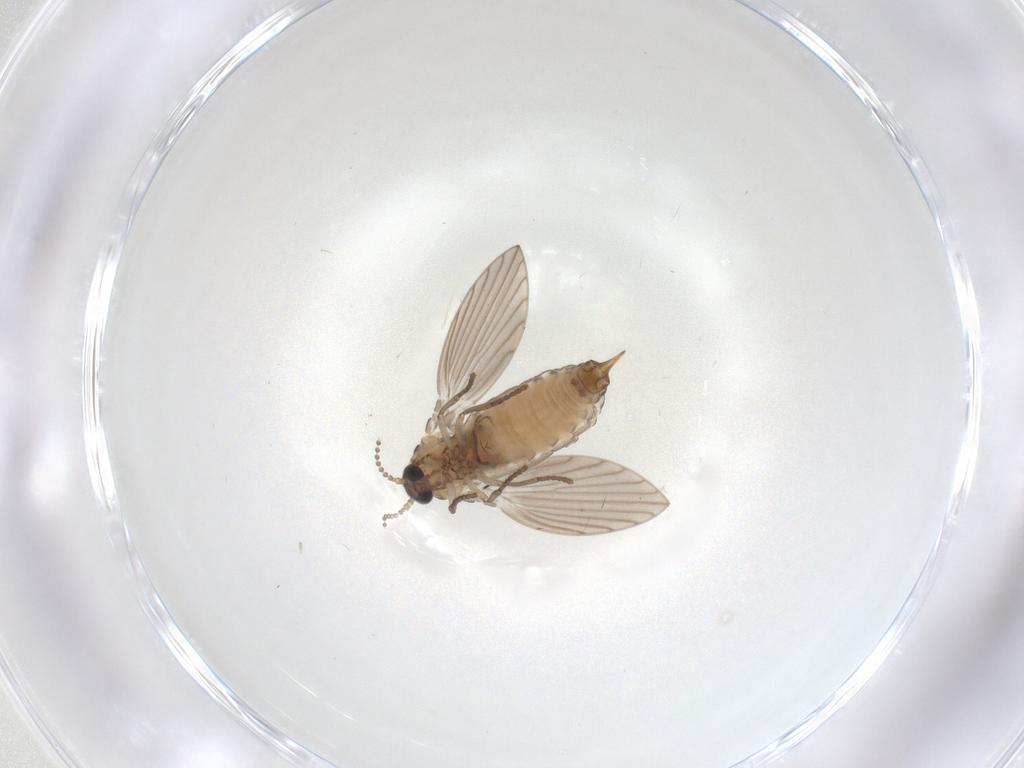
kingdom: Animalia
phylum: Arthropoda
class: Insecta
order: Diptera
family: Psychodidae
